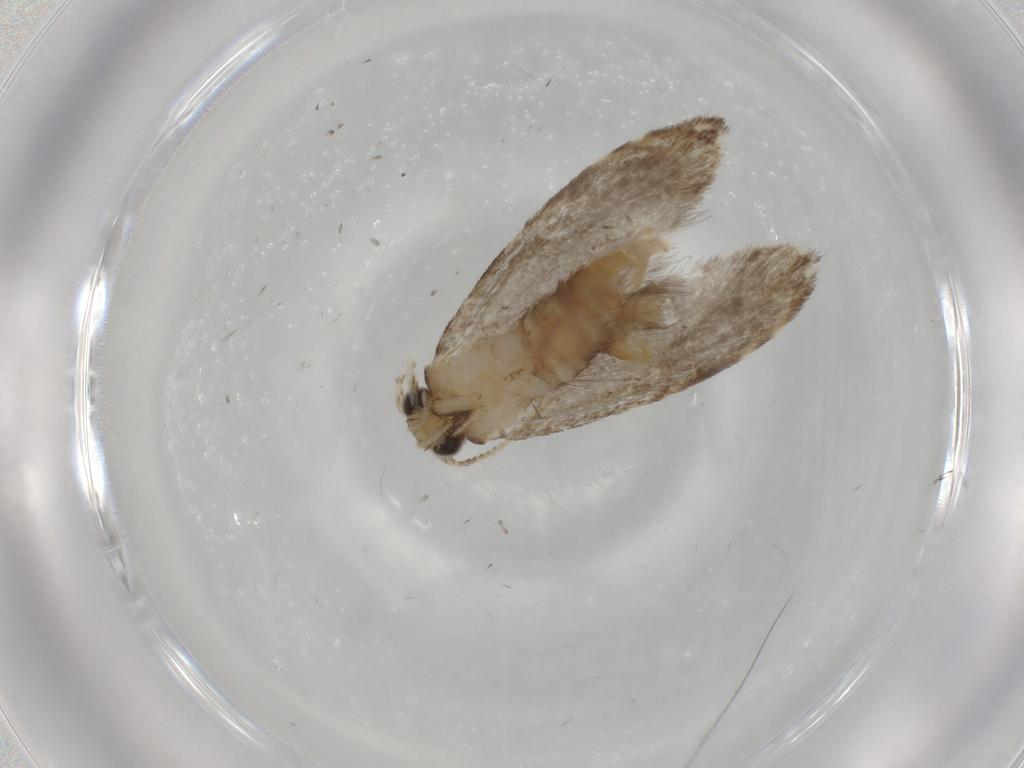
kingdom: Animalia
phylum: Arthropoda
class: Insecta
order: Lepidoptera
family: Tineidae
